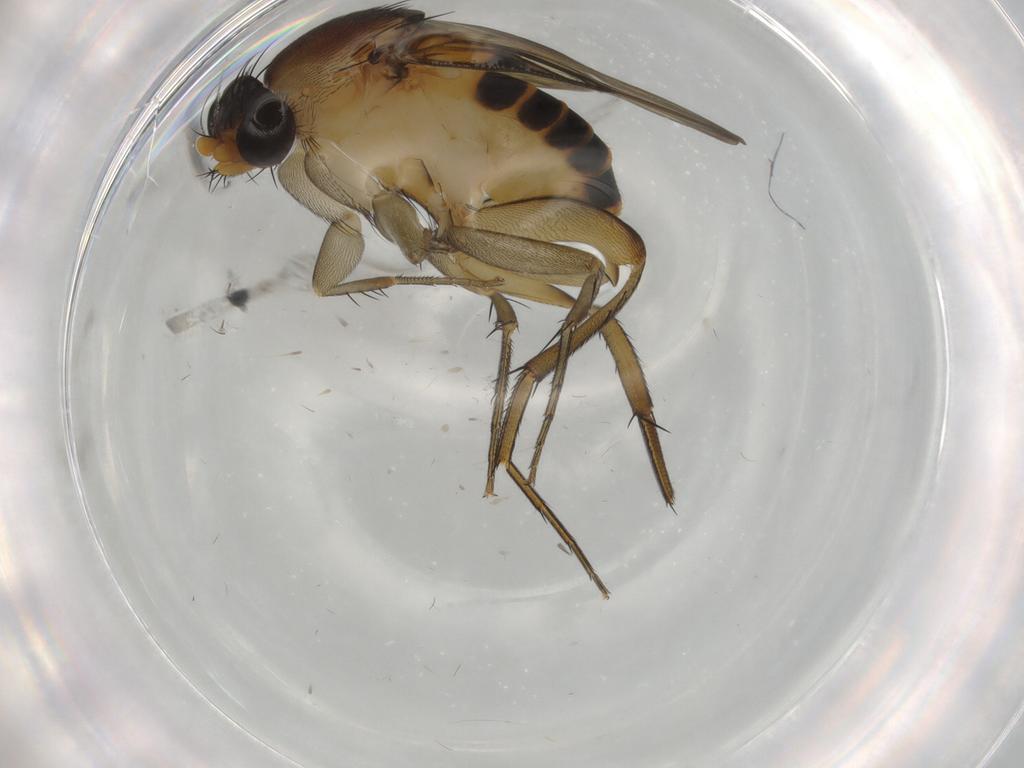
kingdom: Animalia
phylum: Arthropoda
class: Insecta
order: Diptera
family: Phoridae
